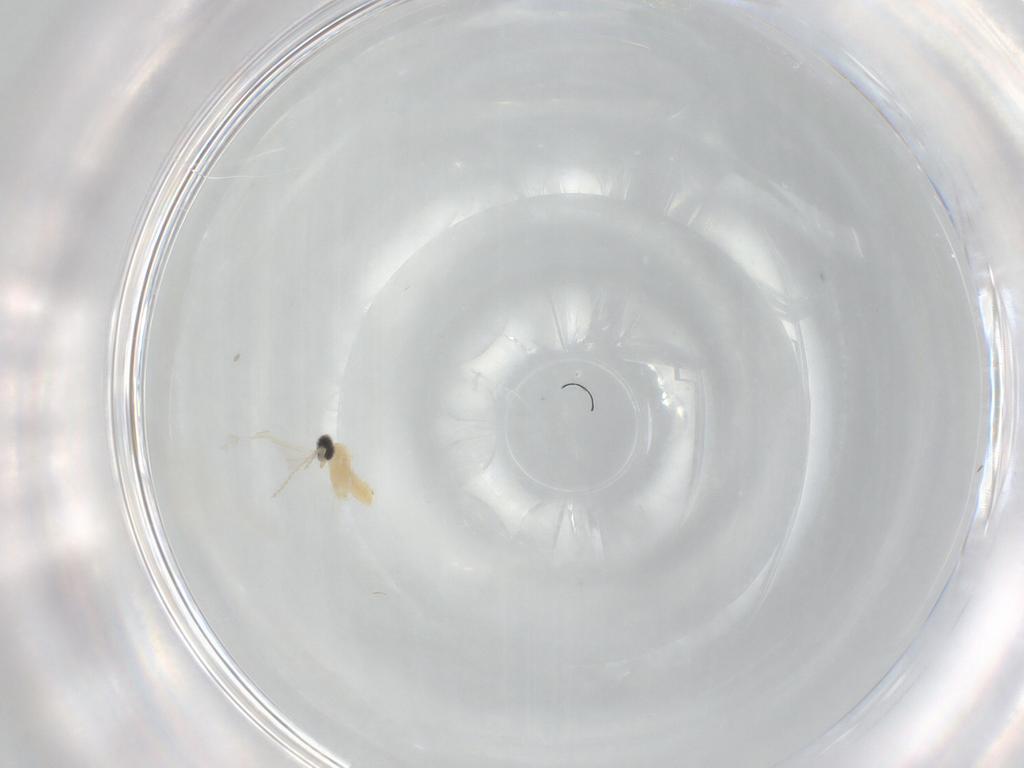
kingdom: Animalia
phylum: Arthropoda
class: Insecta
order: Diptera
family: Cecidomyiidae
